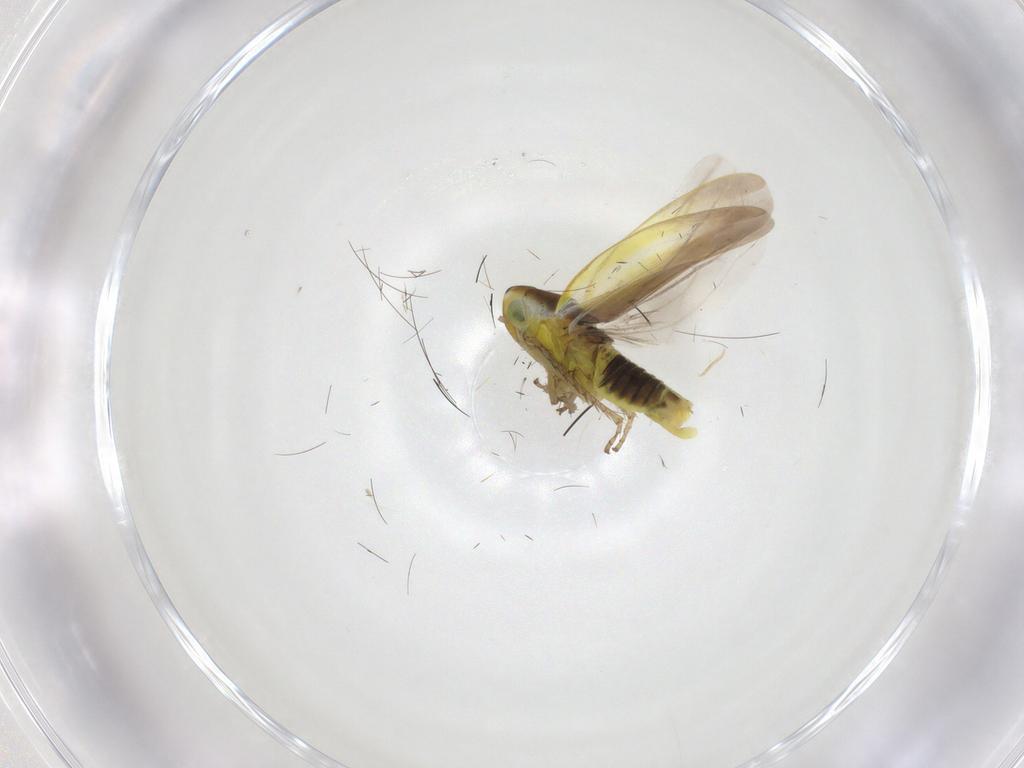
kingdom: Animalia
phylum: Arthropoda
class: Insecta
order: Hemiptera
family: Cicadellidae
